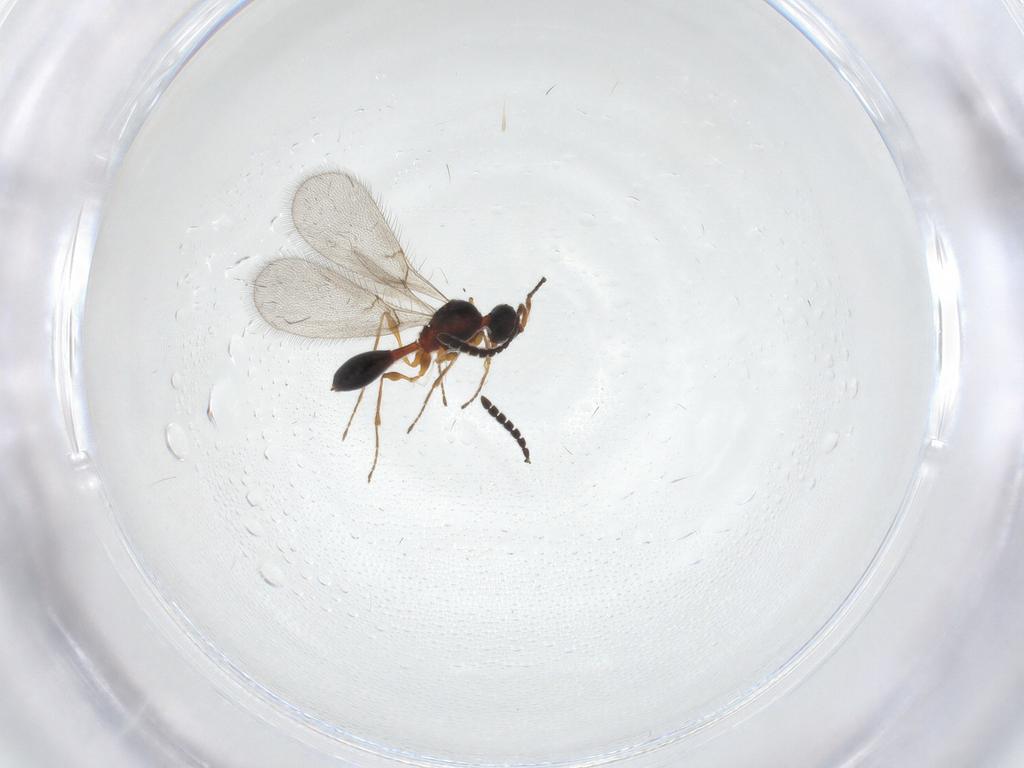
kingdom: Animalia
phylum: Arthropoda
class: Insecta
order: Hymenoptera
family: Diapriidae
